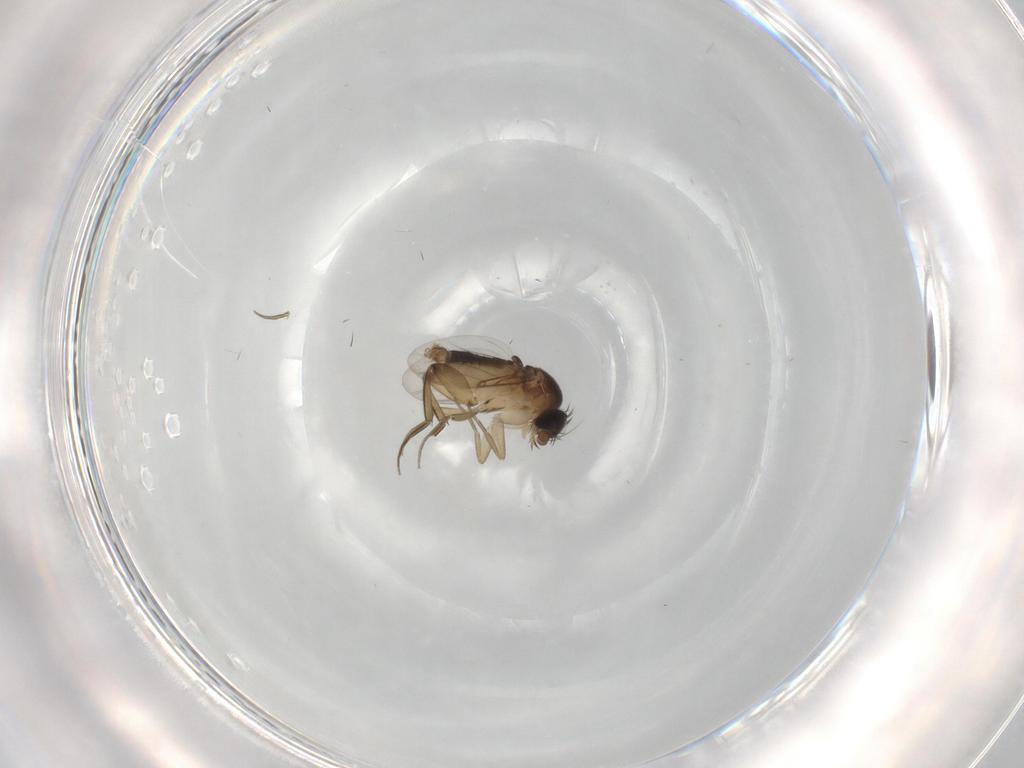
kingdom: Animalia
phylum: Arthropoda
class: Insecta
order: Diptera
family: Phoridae
